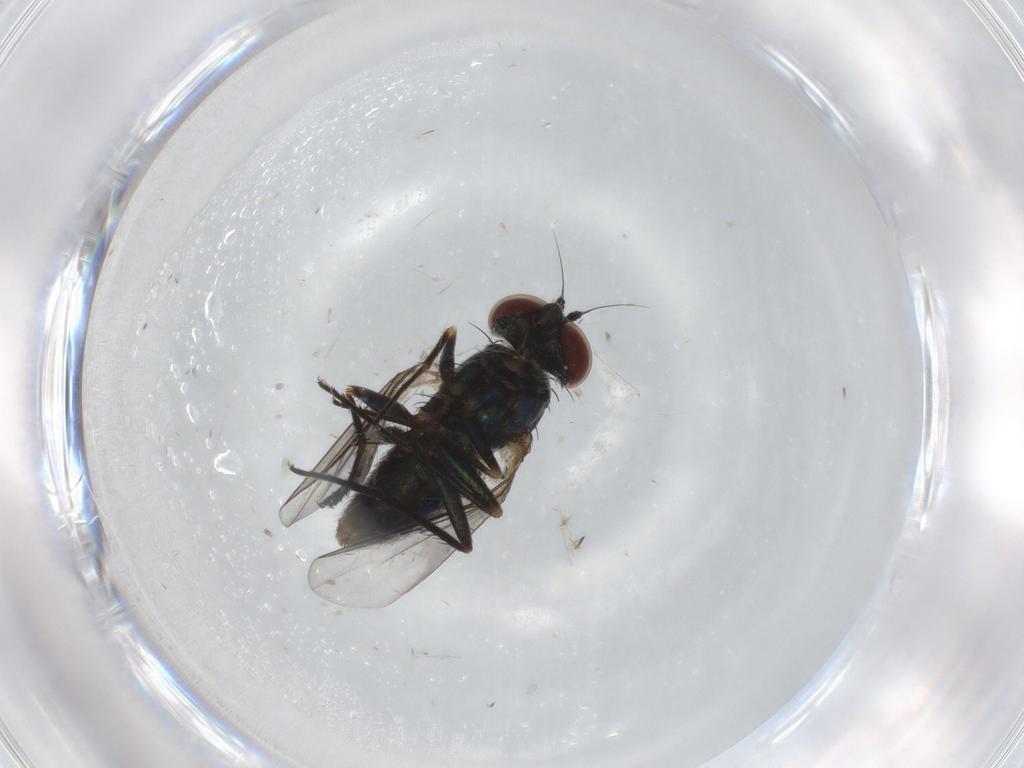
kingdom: Animalia
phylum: Arthropoda
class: Insecta
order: Diptera
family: Dolichopodidae
